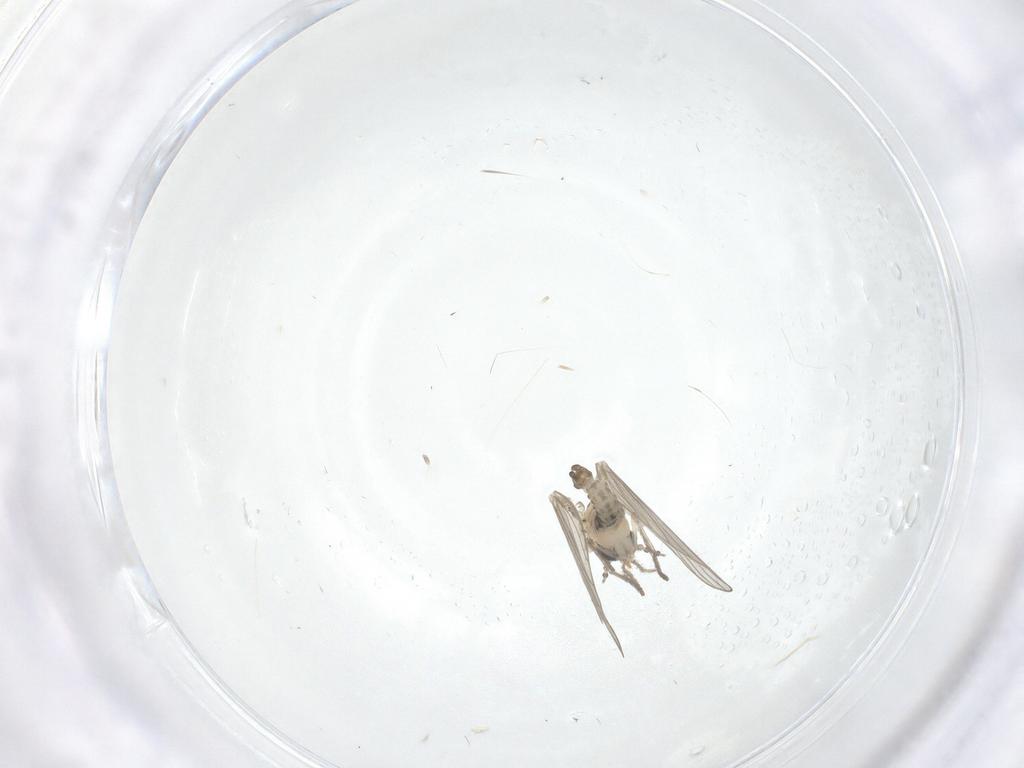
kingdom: Animalia
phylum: Arthropoda
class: Insecta
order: Diptera
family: Psychodidae
